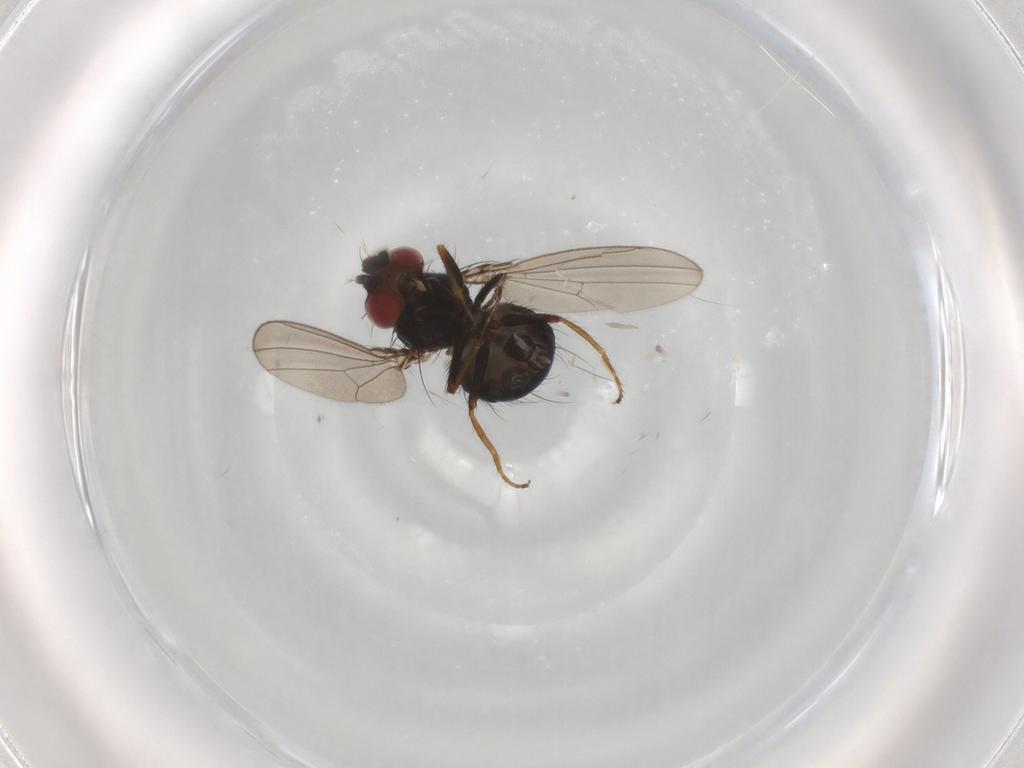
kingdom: Animalia
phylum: Arthropoda
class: Insecta
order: Diptera
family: Ephydridae
